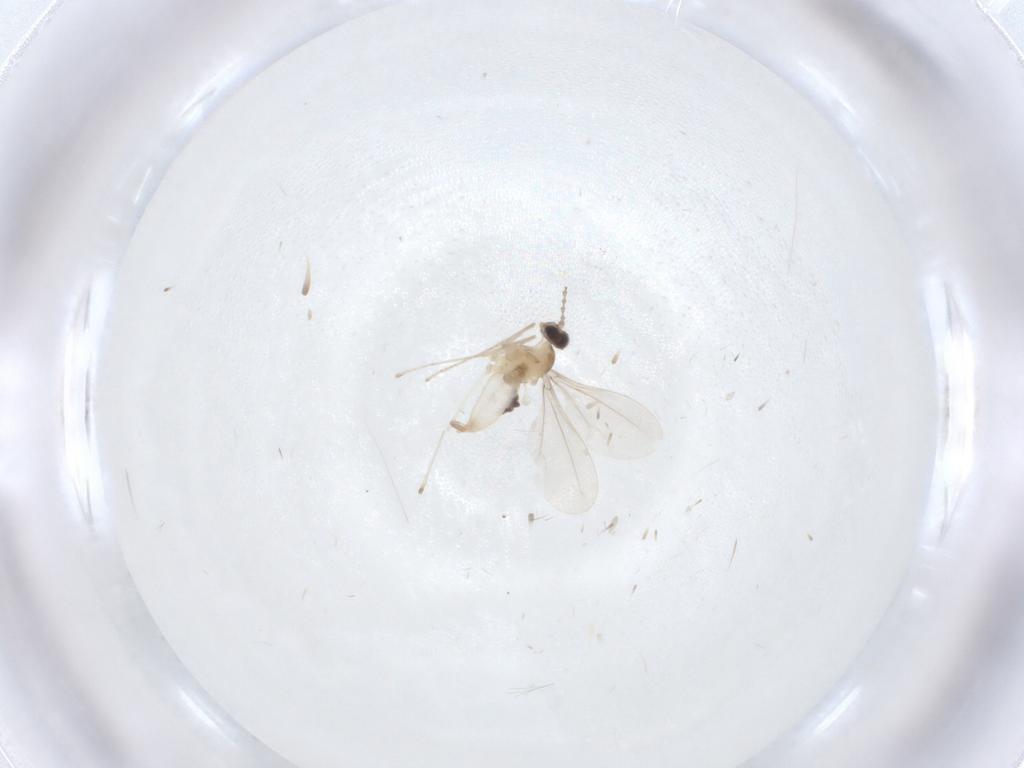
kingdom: Animalia
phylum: Arthropoda
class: Insecta
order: Diptera
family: Cecidomyiidae
